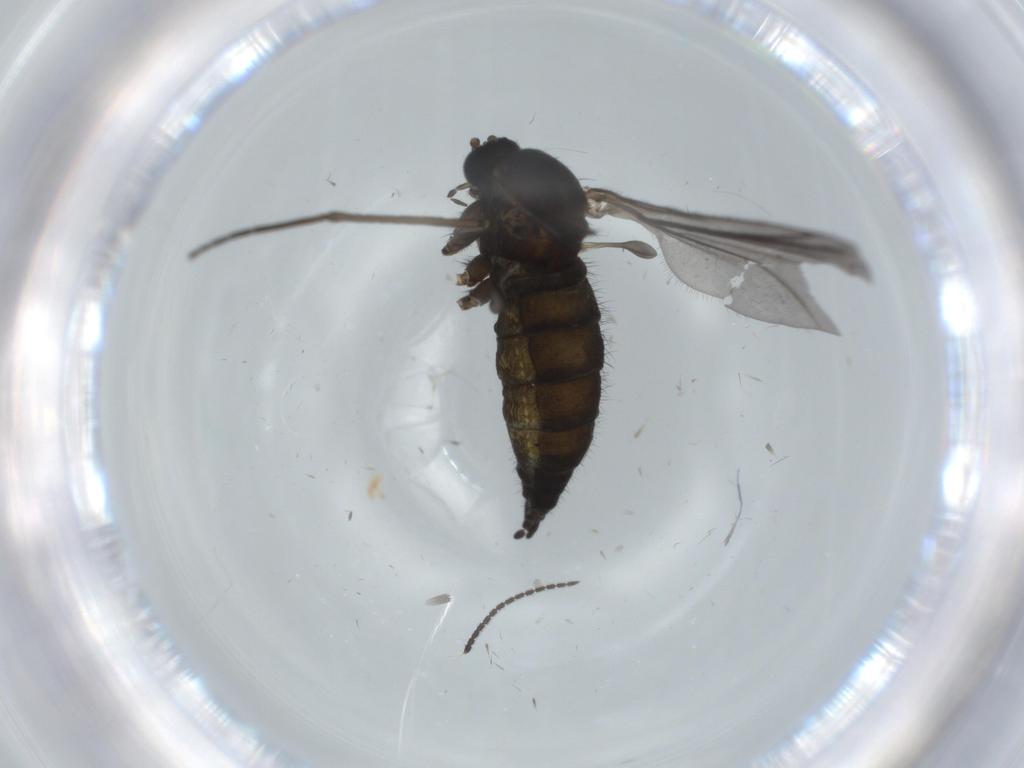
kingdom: Animalia
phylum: Arthropoda
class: Insecta
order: Diptera
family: Sciaridae
